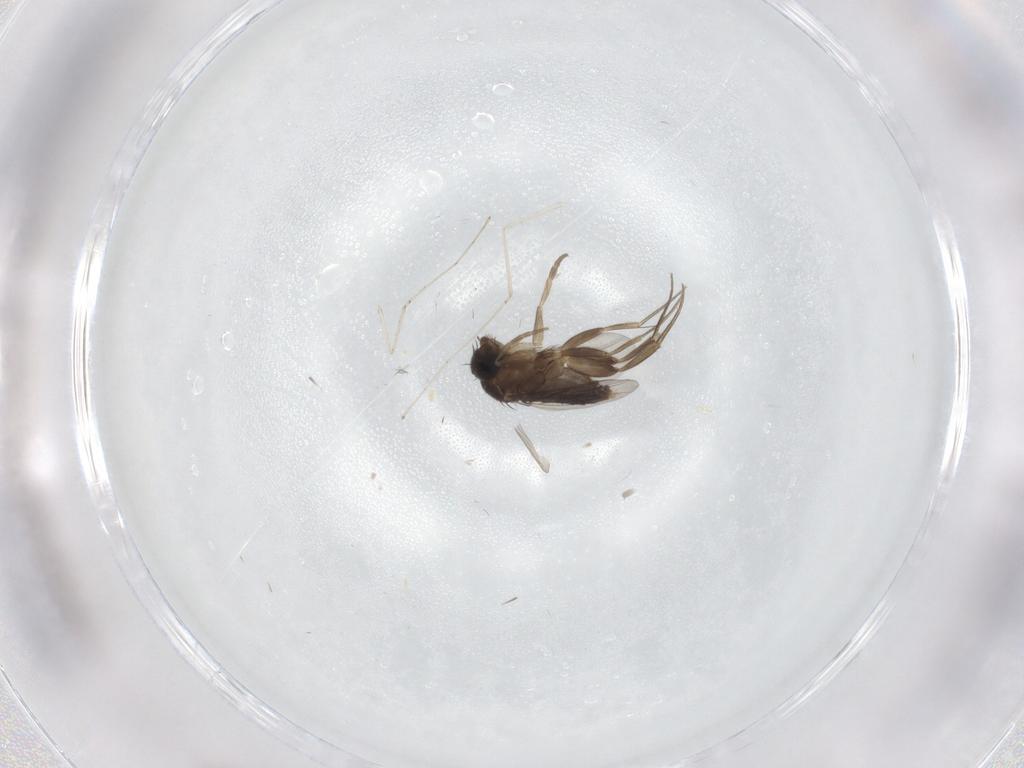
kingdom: Animalia
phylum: Arthropoda
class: Insecta
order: Diptera
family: Phoridae
